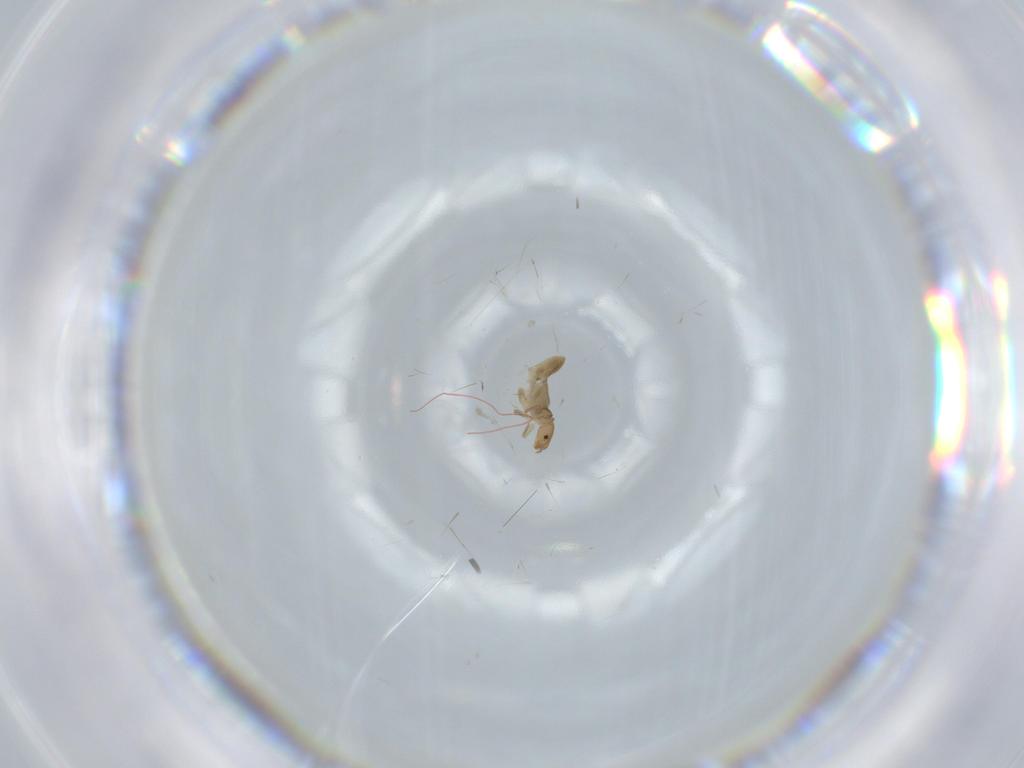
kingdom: Animalia
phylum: Arthropoda
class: Insecta
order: Psocodea
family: Liposcelididae
